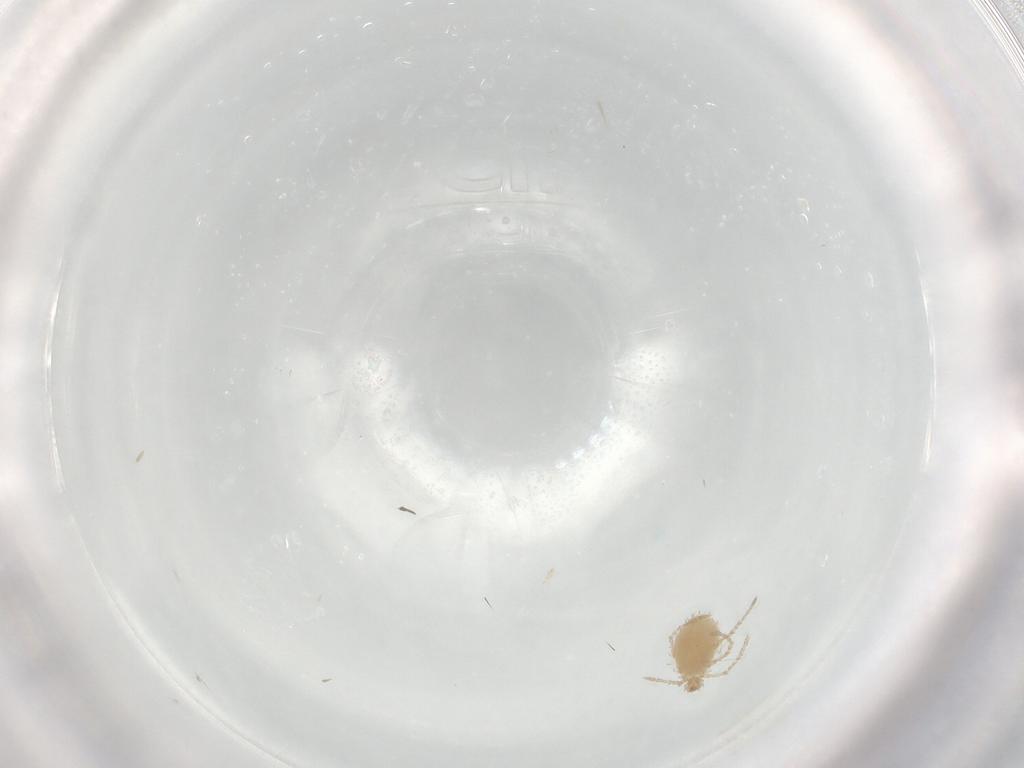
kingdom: Animalia
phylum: Arthropoda
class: Arachnida
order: Trombidiformes
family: Erythraeidae
